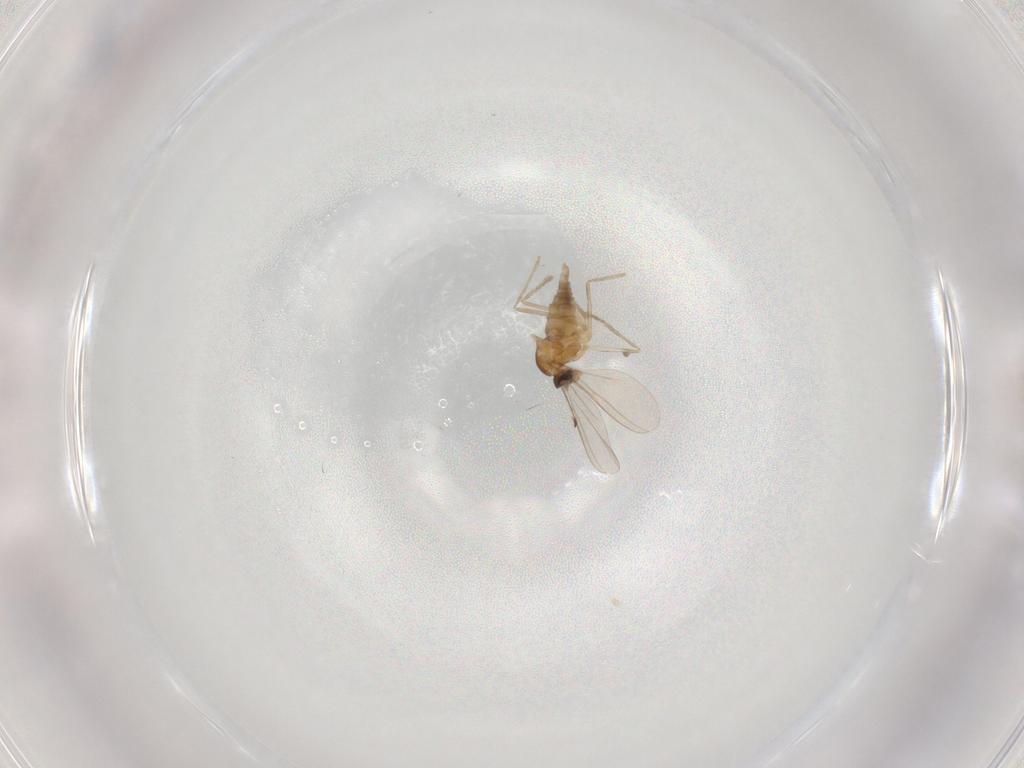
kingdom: Animalia
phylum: Arthropoda
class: Insecta
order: Diptera
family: Cecidomyiidae
